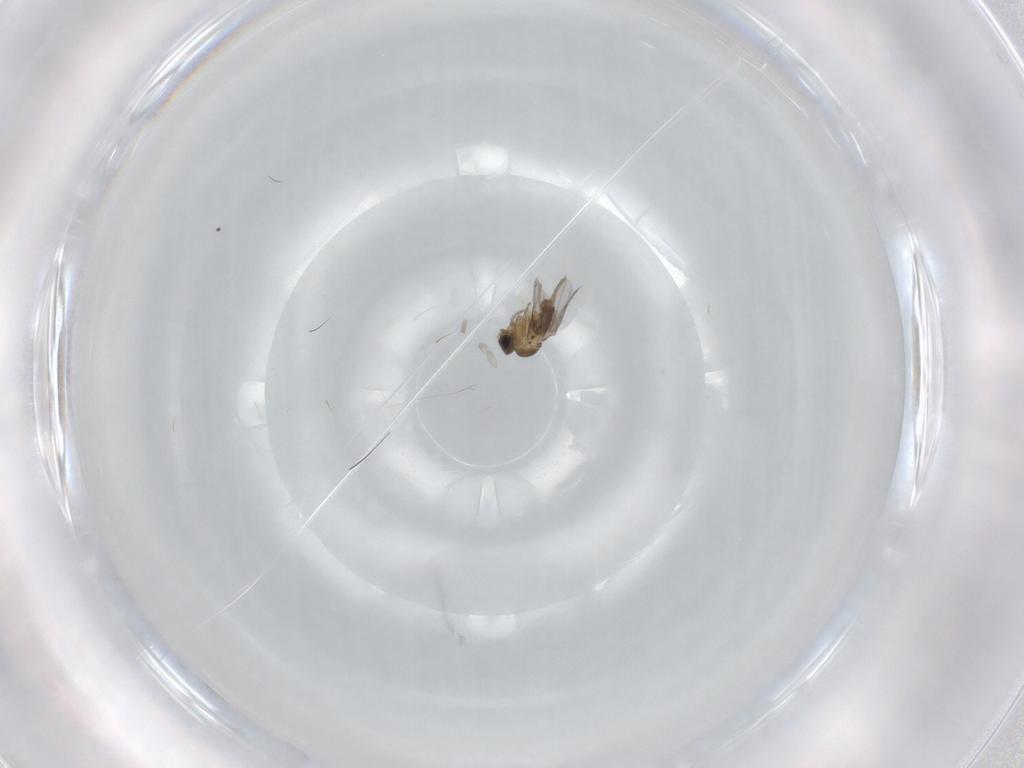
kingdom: Animalia
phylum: Arthropoda
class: Insecta
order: Diptera
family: Phoridae
